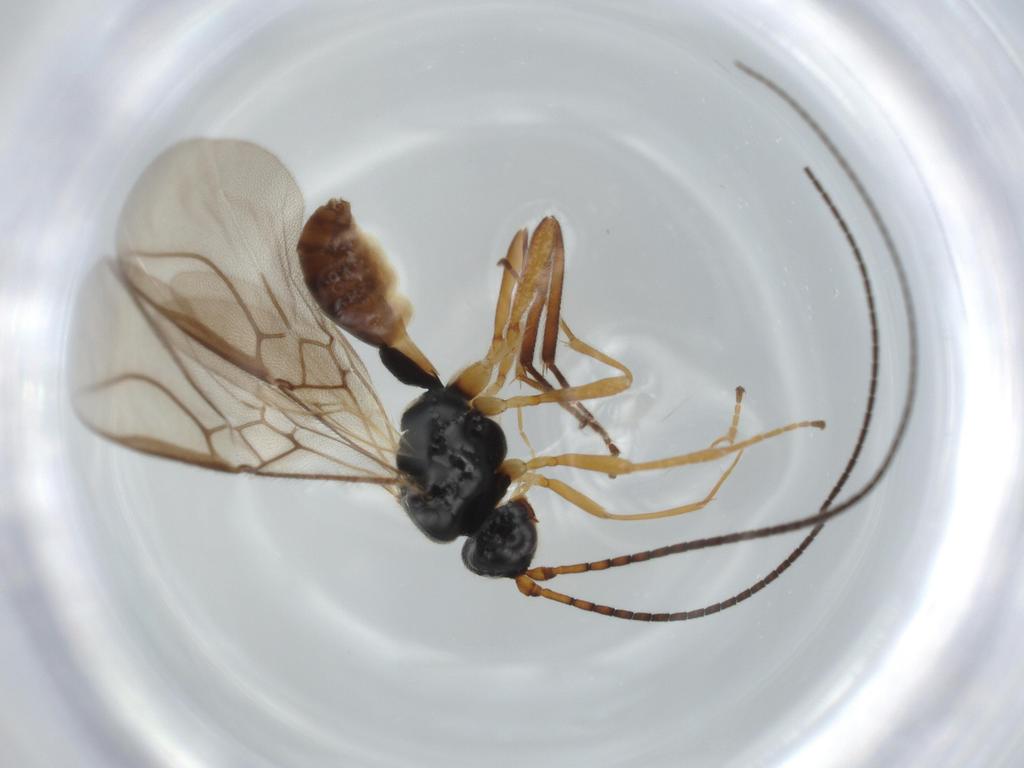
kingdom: Animalia
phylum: Arthropoda
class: Insecta
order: Hymenoptera
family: Braconidae
